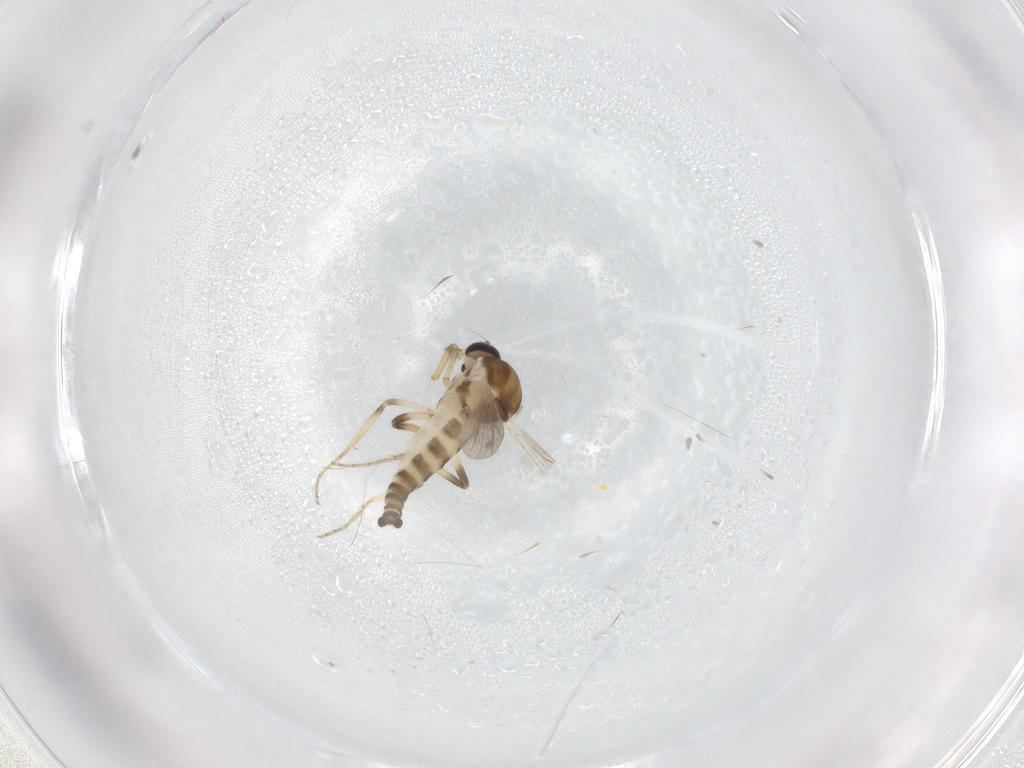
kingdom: Animalia
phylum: Arthropoda
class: Insecta
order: Diptera
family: Ceratopogonidae
